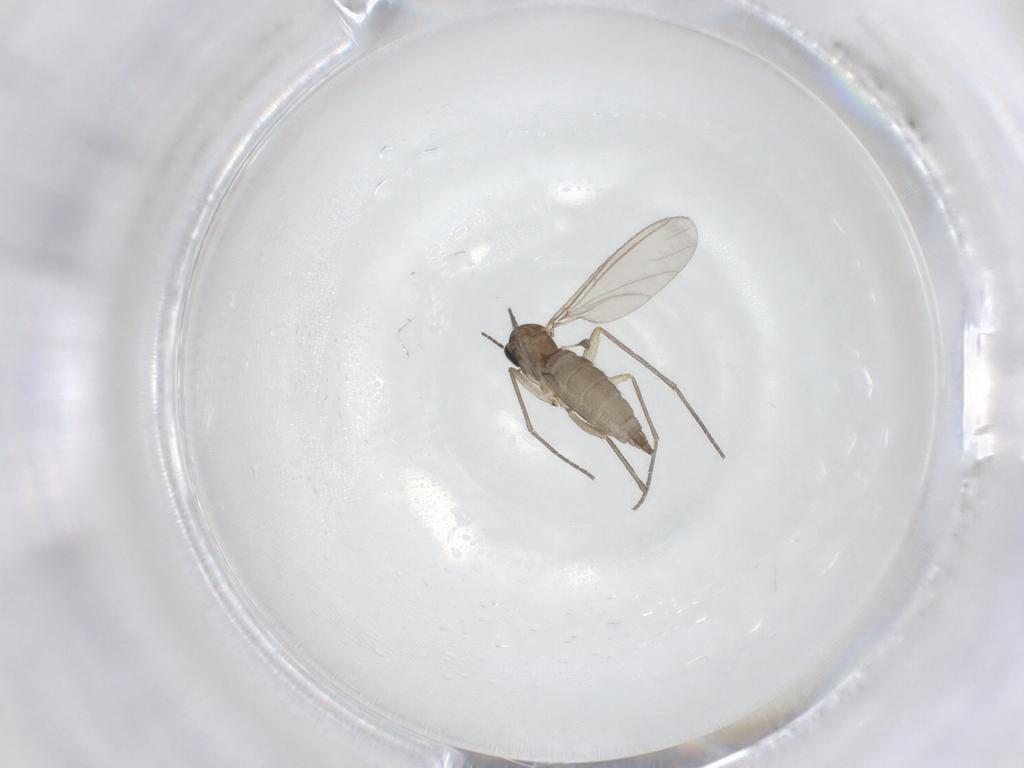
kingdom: Animalia
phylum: Arthropoda
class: Insecta
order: Diptera
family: Sciaridae
